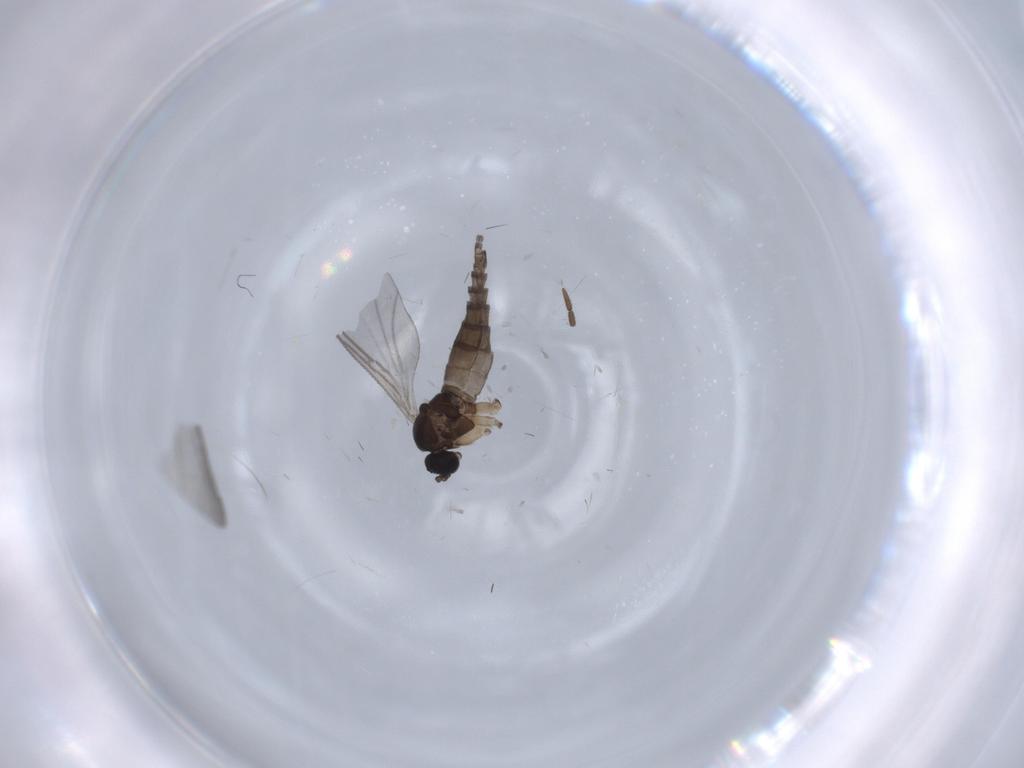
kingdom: Animalia
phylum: Arthropoda
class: Insecta
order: Diptera
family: Sciaridae
